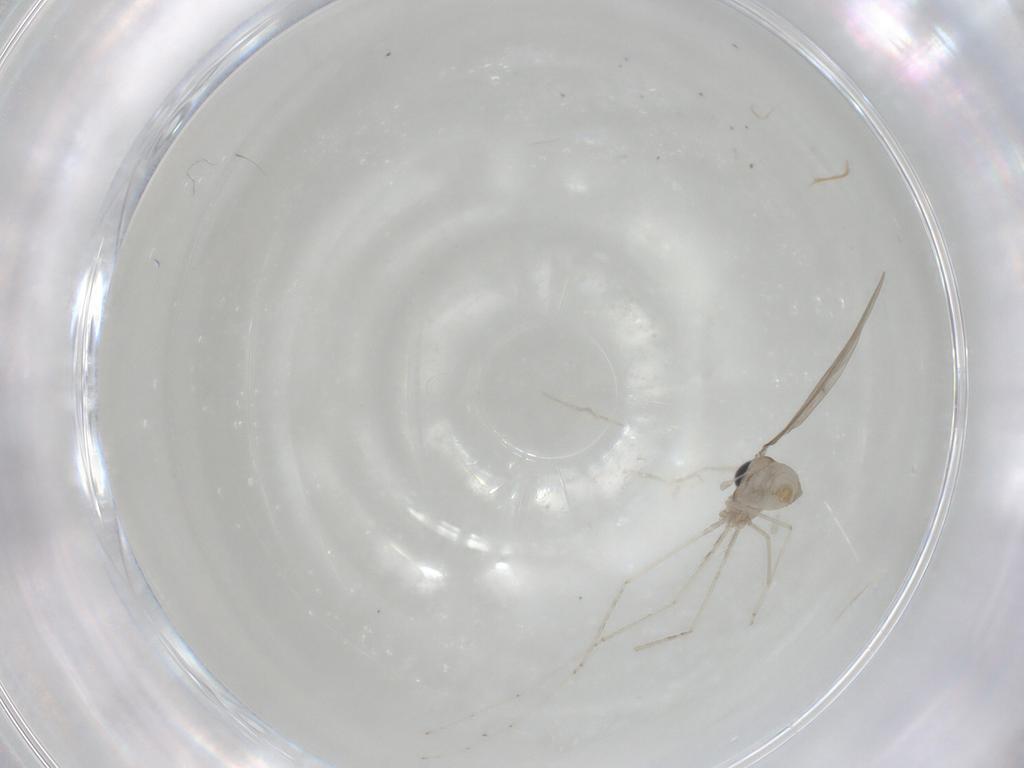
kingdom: Animalia
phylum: Arthropoda
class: Insecta
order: Diptera
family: Cecidomyiidae
